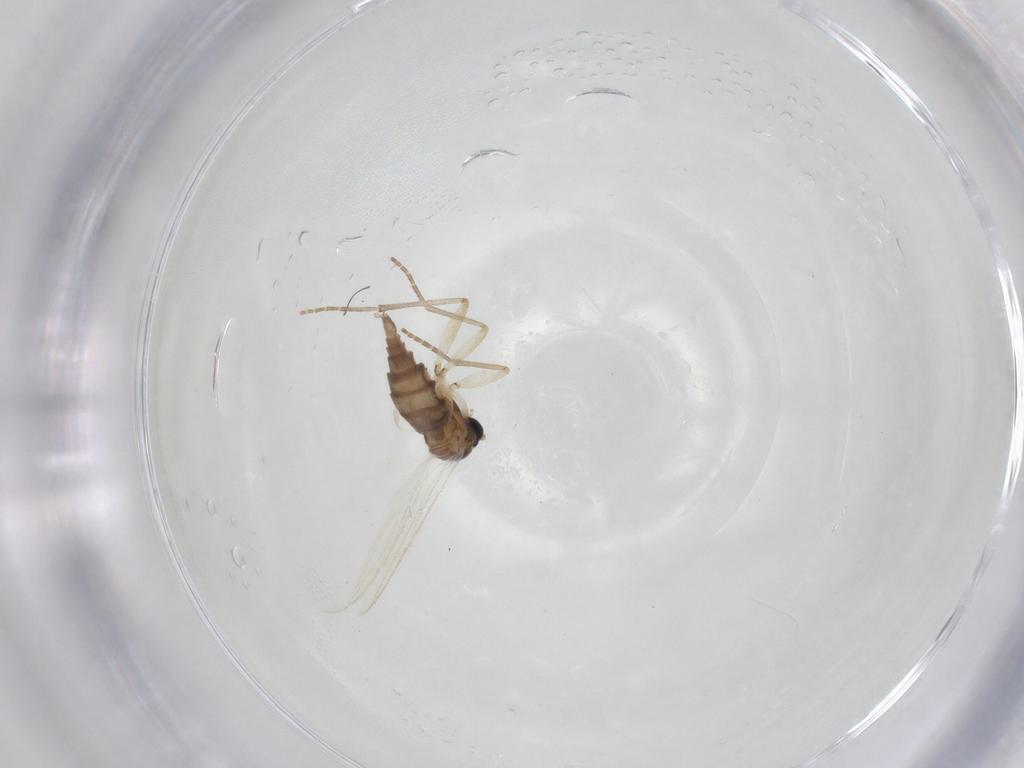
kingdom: Animalia
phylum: Arthropoda
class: Insecta
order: Diptera
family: Sciaridae
